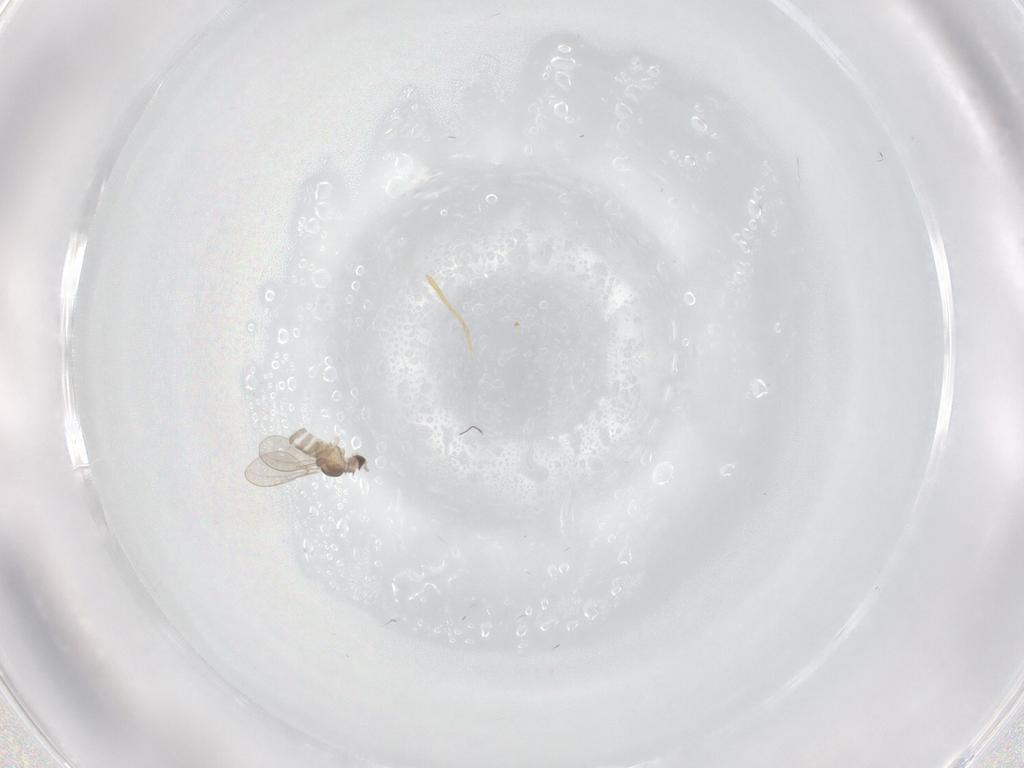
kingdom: Animalia
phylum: Arthropoda
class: Insecta
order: Diptera
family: Cecidomyiidae
